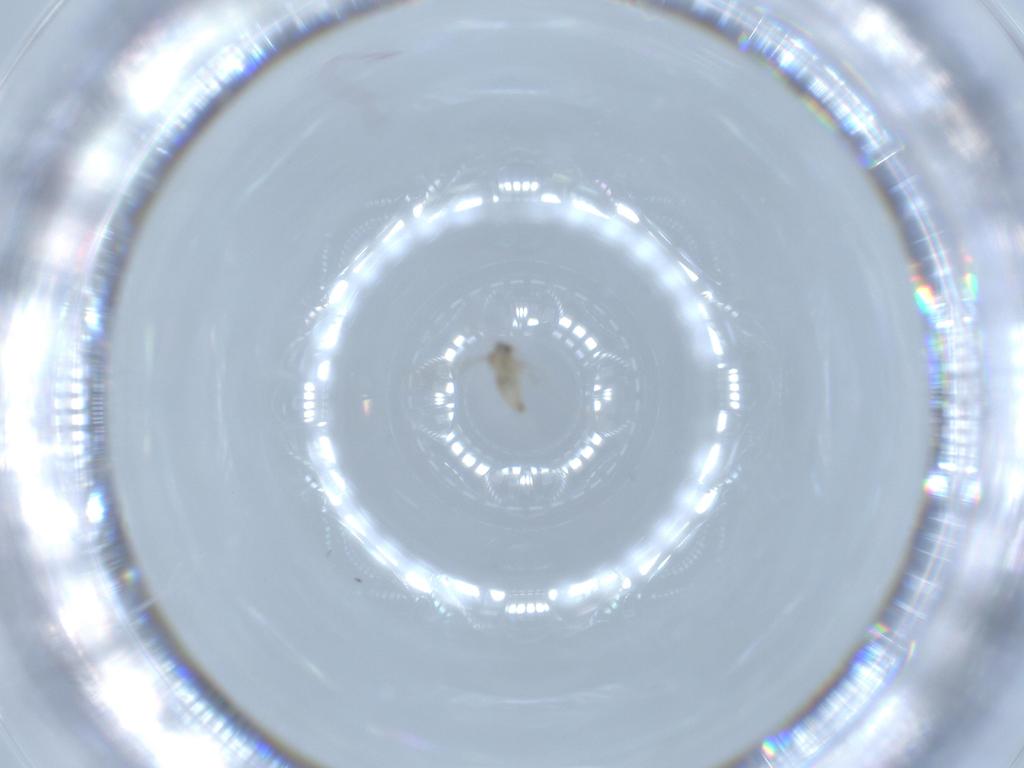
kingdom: Animalia
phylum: Arthropoda
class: Insecta
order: Diptera
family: Cecidomyiidae
